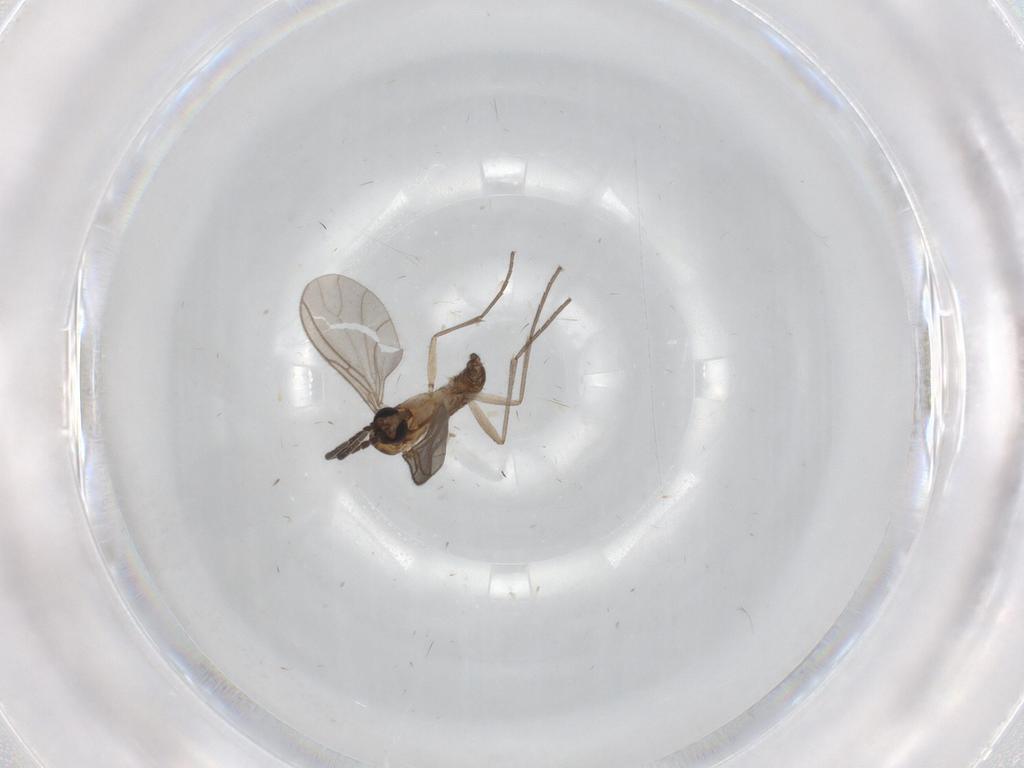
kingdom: Animalia
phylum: Arthropoda
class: Insecta
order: Diptera
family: Sciaridae
